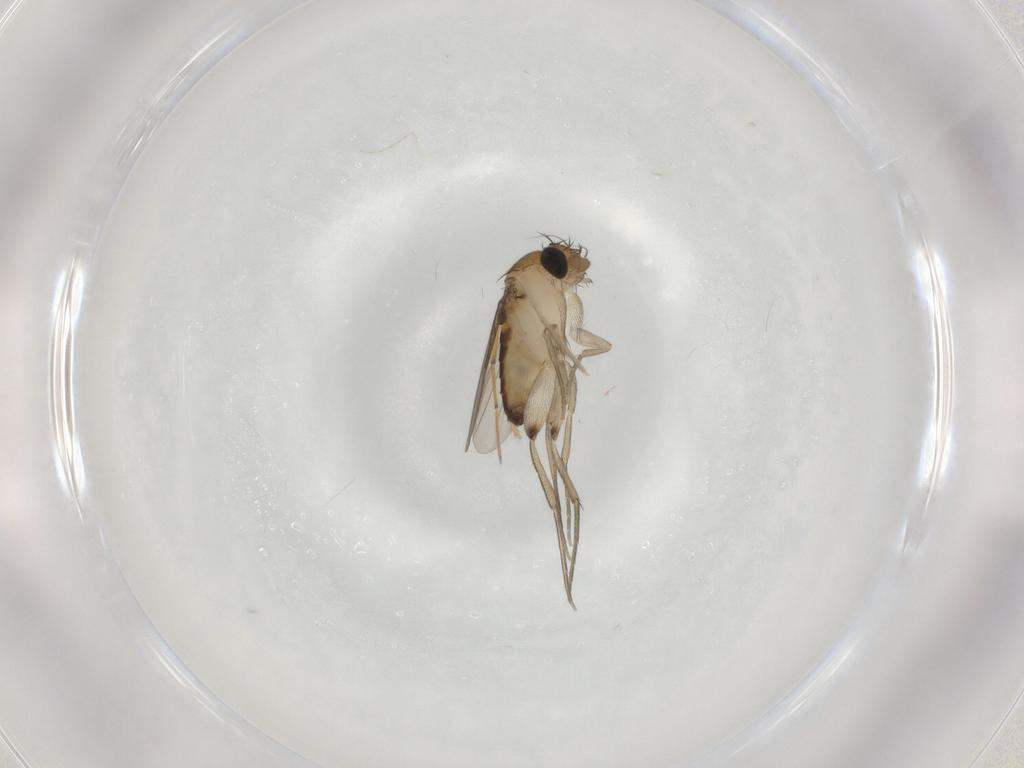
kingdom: Animalia
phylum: Arthropoda
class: Insecta
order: Diptera
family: Phoridae
